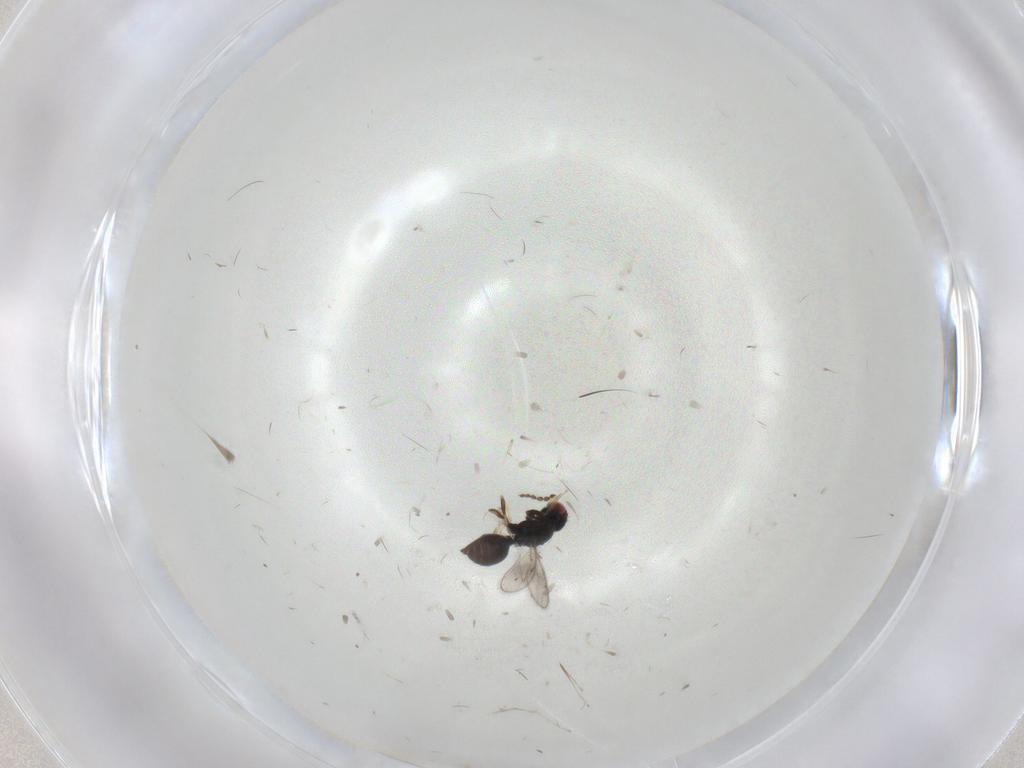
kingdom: Animalia
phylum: Arthropoda
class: Insecta
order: Hymenoptera
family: Eulophidae
